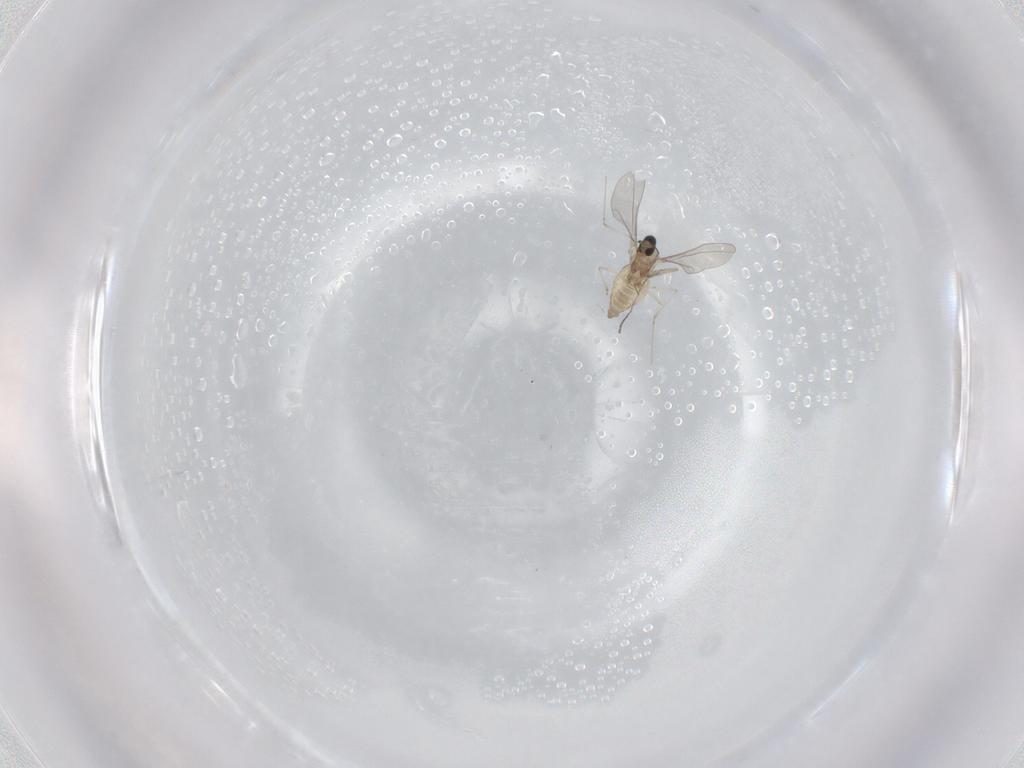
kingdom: Animalia
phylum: Arthropoda
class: Insecta
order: Diptera
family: Cecidomyiidae
